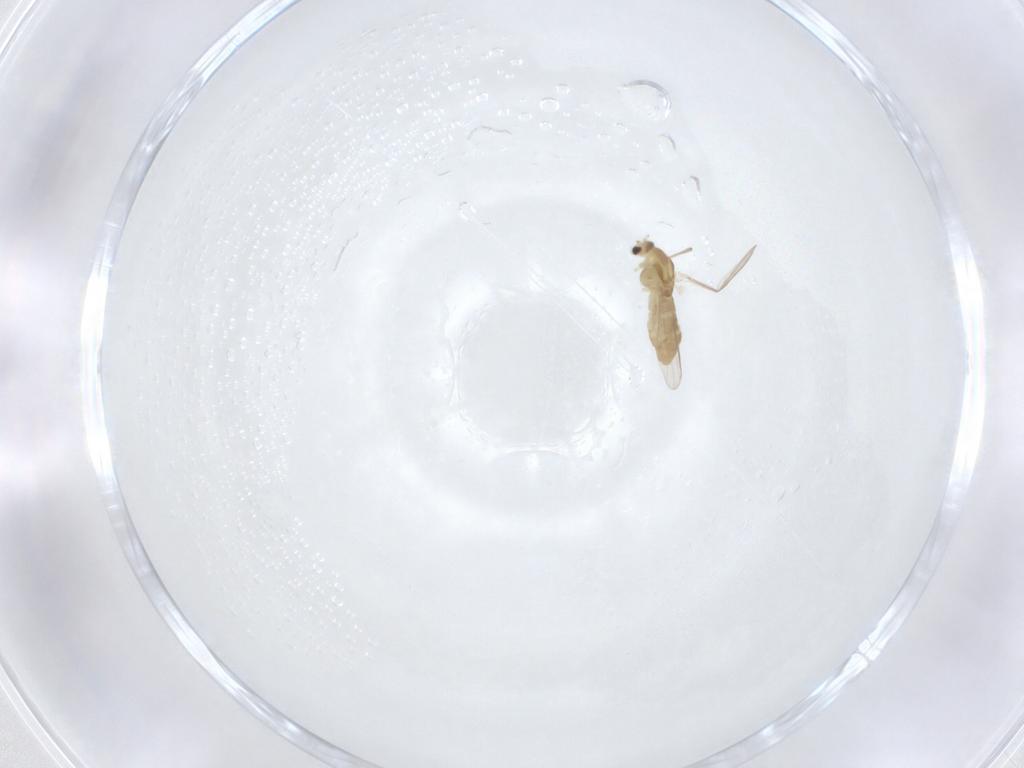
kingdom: Animalia
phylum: Arthropoda
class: Insecta
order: Diptera
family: Chironomidae
